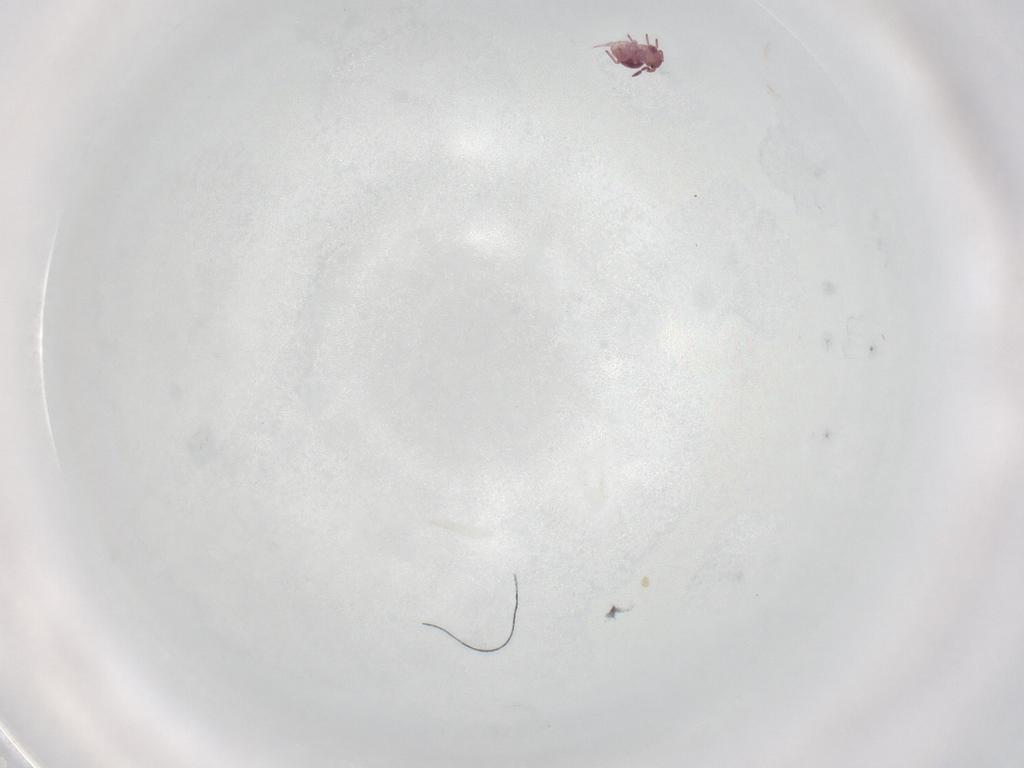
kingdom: Animalia
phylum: Arthropoda
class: Collembola
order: Symphypleona
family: Sminthurididae
